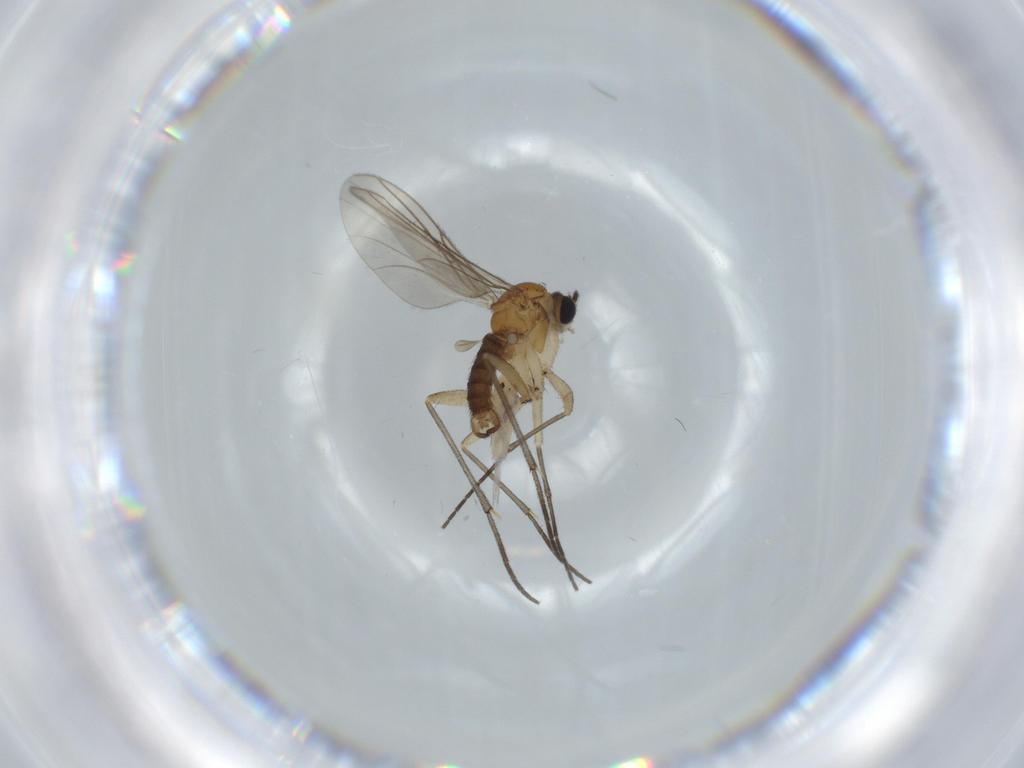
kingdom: Animalia
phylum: Arthropoda
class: Insecta
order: Diptera
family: Sciaridae
